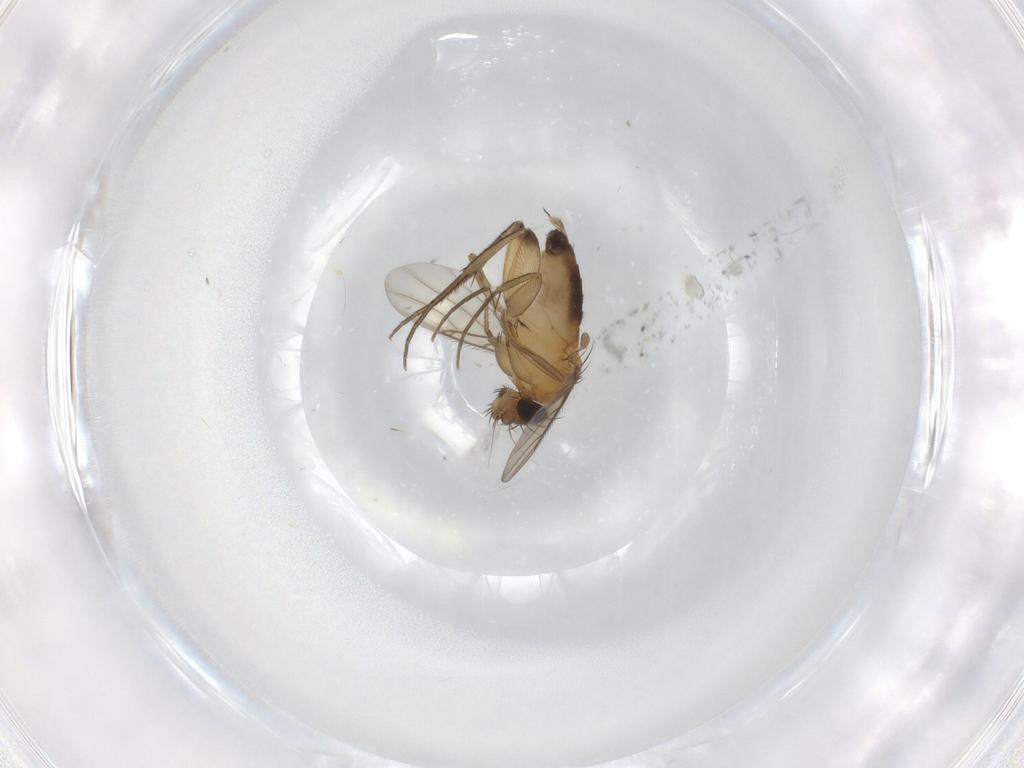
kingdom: Animalia
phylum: Arthropoda
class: Insecta
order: Diptera
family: Phoridae
